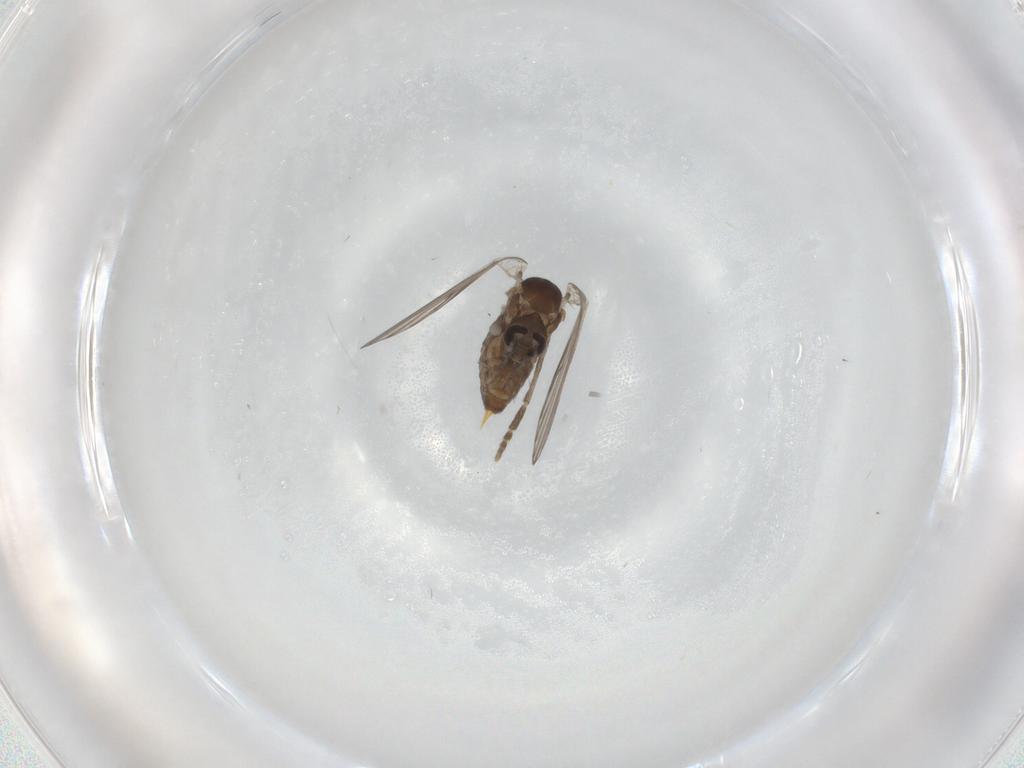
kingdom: Animalia
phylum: Arthropoda
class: Insecta
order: Diptera
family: Psychodidae
